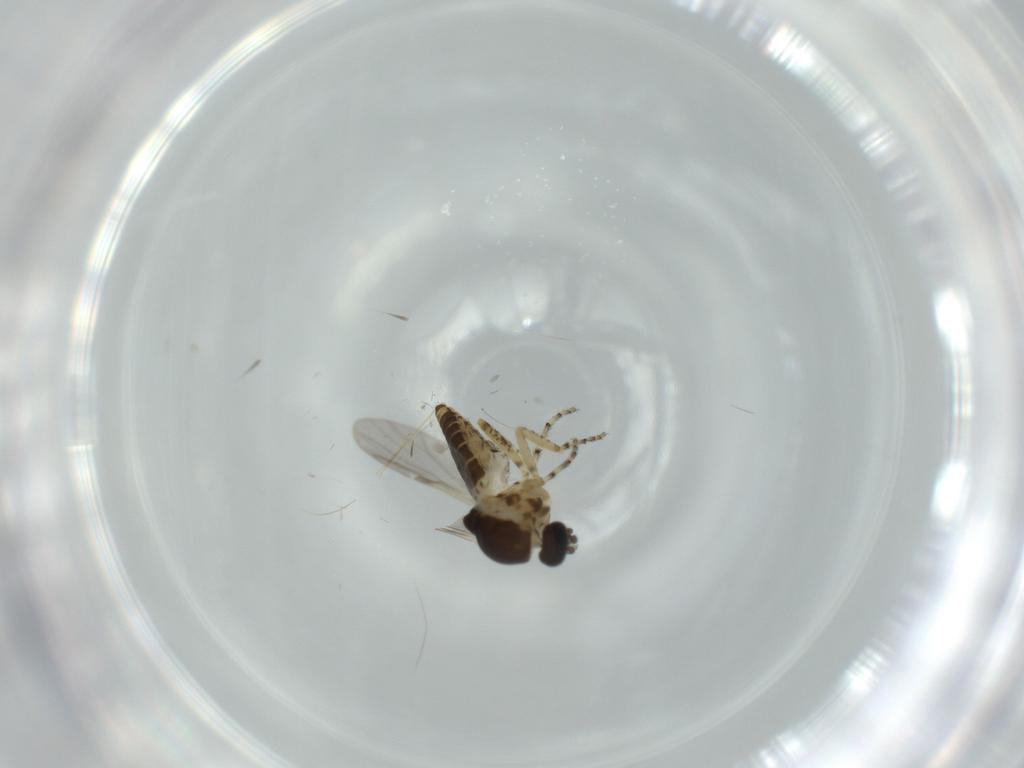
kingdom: Animalia
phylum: Arthropoda
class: Insecta
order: Diptera
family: Ceratopogonidae
